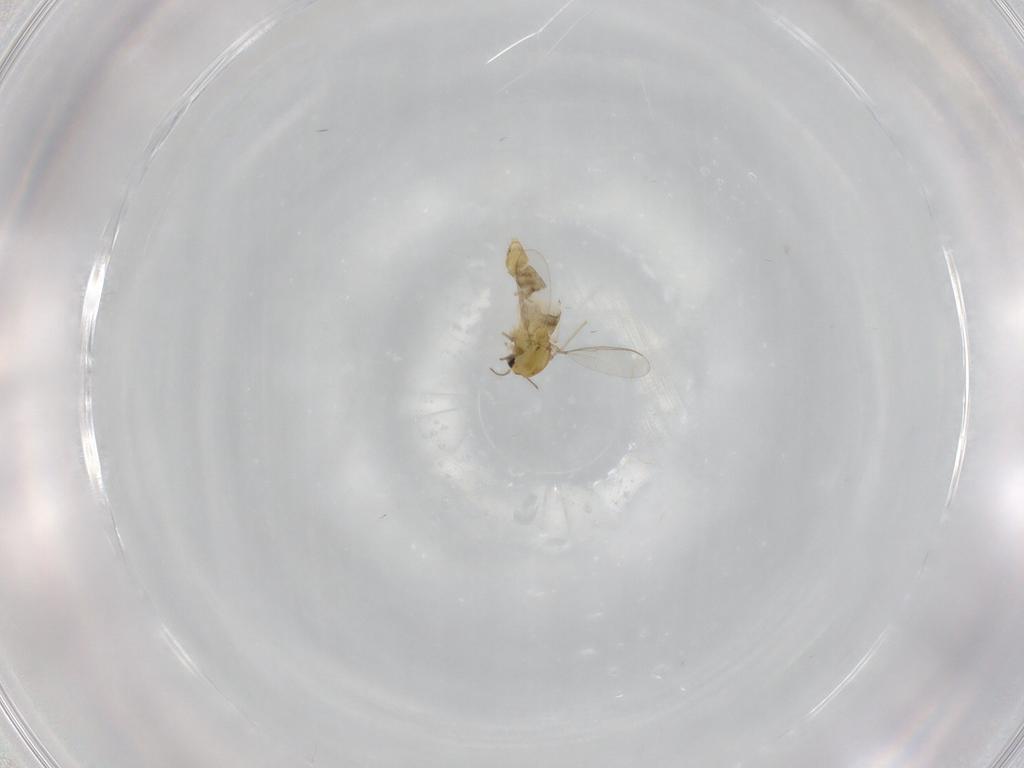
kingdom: Animalia
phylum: Arthropoda
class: Insecta
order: Diptera
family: Chironomidae
